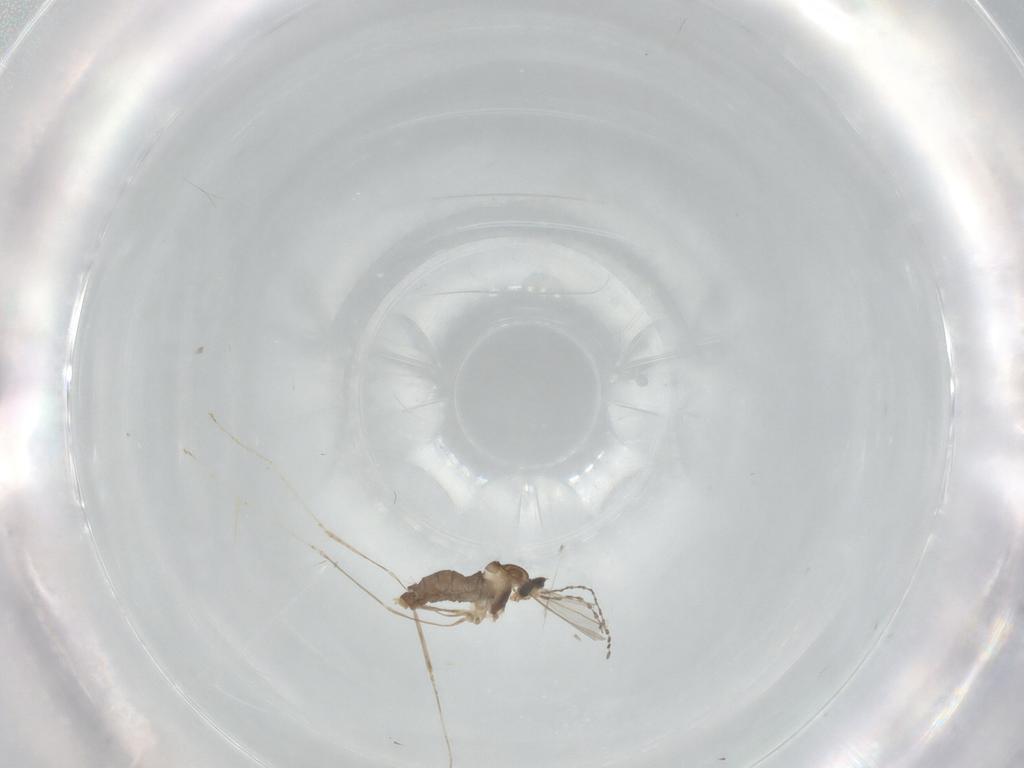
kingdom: Animalia
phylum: Arthropoda
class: Insecta
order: Diptera
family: Cecidomyiidae
